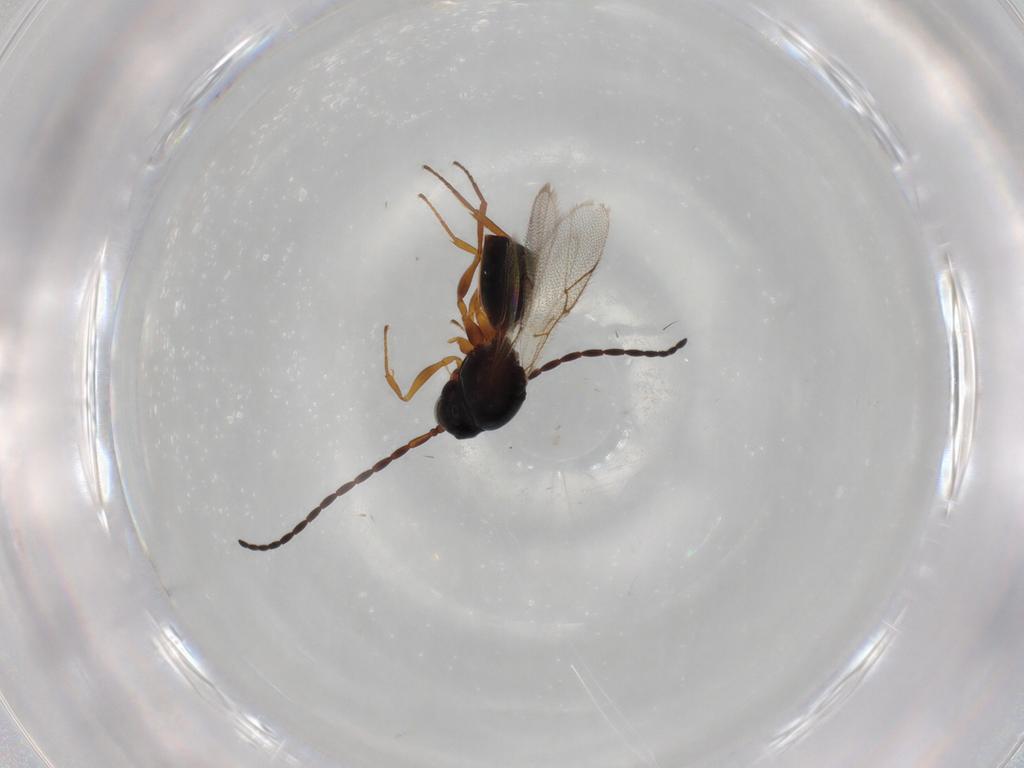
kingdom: Animalia
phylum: Arthropoda
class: Insecta
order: Hymenoptera
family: Figitidae
